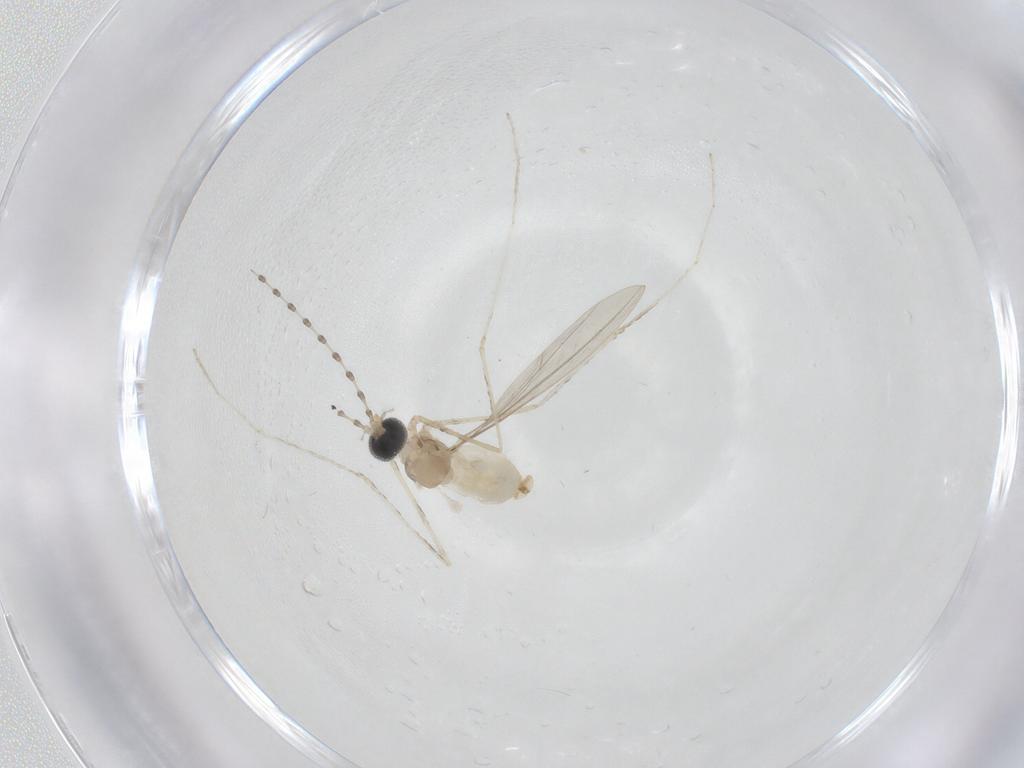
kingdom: Animalia
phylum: Arthropoda
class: Insecta
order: Diptera
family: Cecidomyiidae
